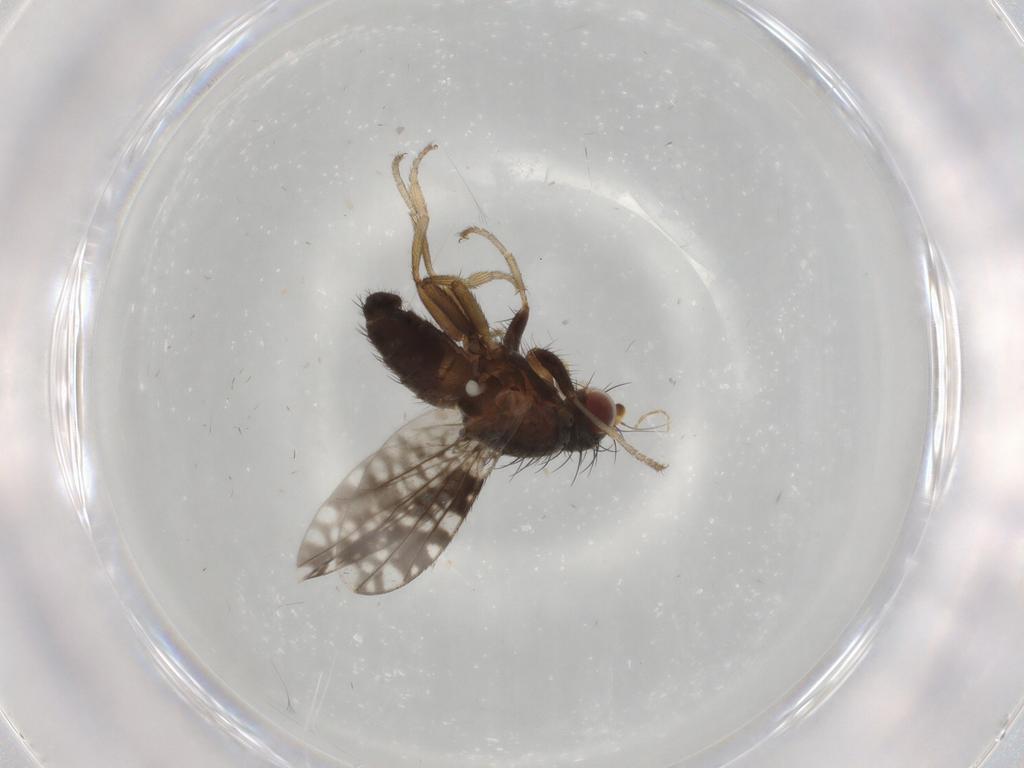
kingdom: Animalia
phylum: Arthropoda
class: Insecta
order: Diptera
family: Tephritidae
